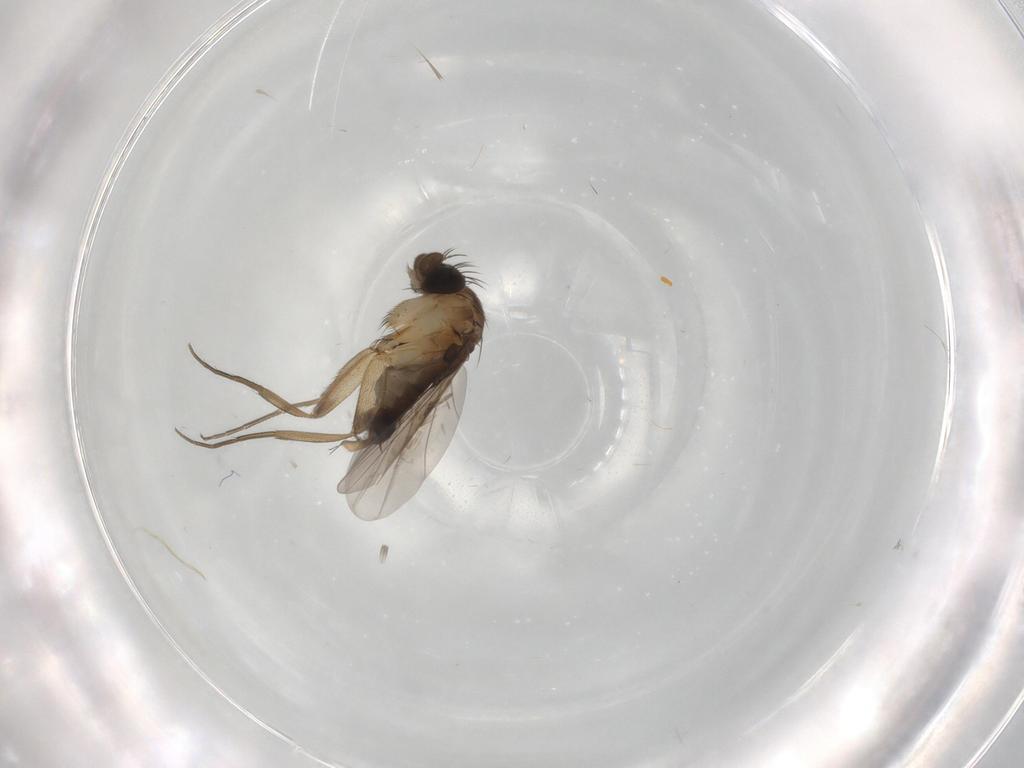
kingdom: Animalia
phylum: Arthropoda
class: Insecta
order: Diptera
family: Phoridae
